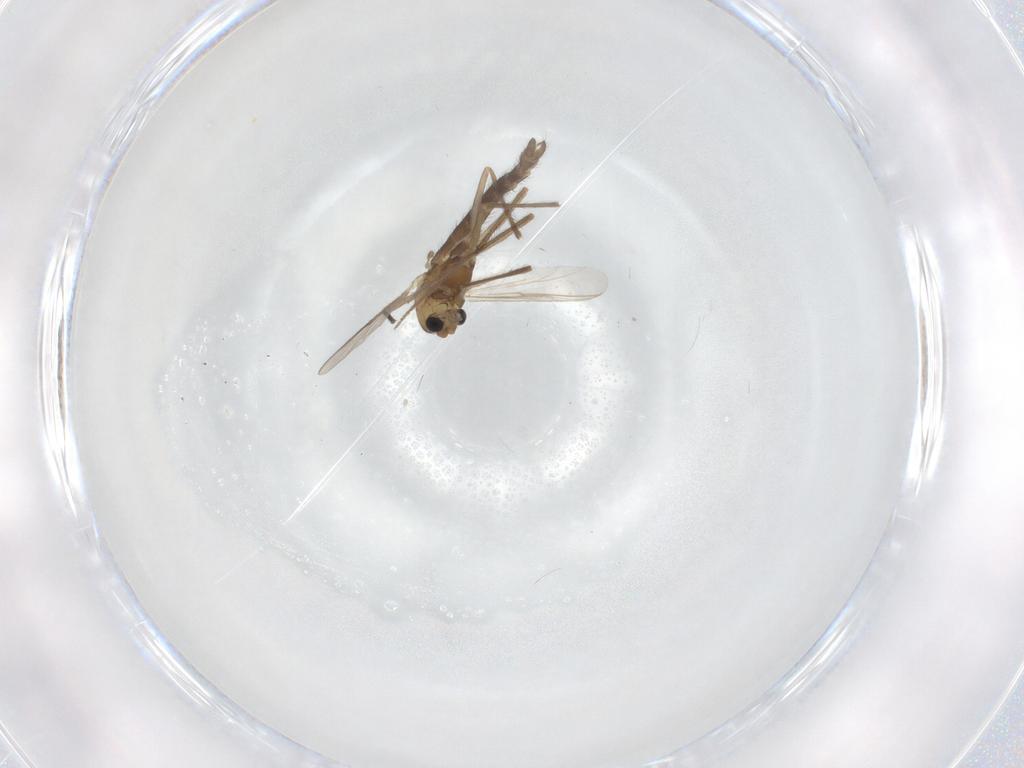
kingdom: Animalia
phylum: Arthropoda
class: Insecta
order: Diptera
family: Chironomidae
